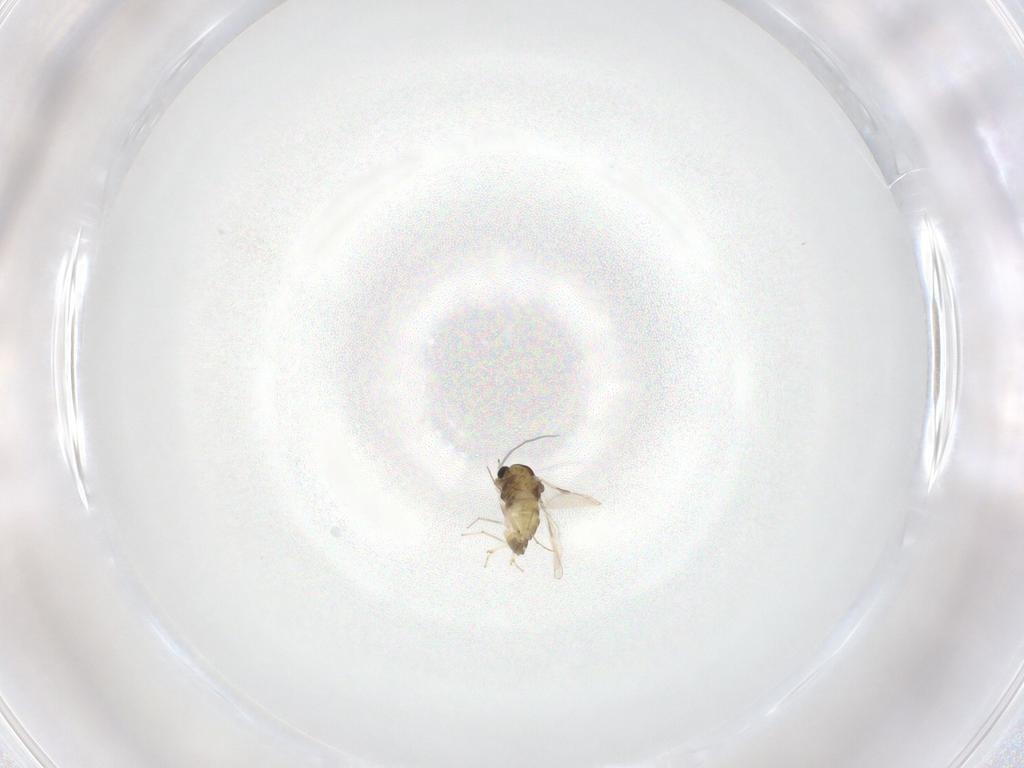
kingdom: Animalia
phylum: Arthropoda
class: Insecta
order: Diptera
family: Chironomidae
